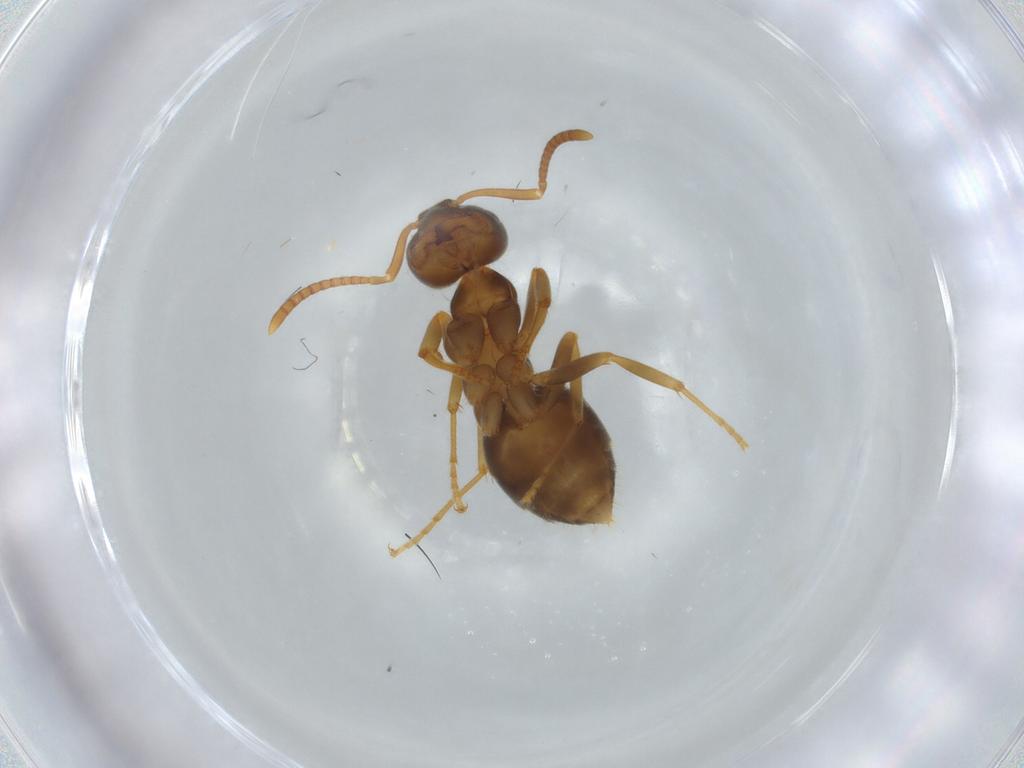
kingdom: Animalia
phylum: Arthropoda
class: Insecta
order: Hymenoptera
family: Formicidae
